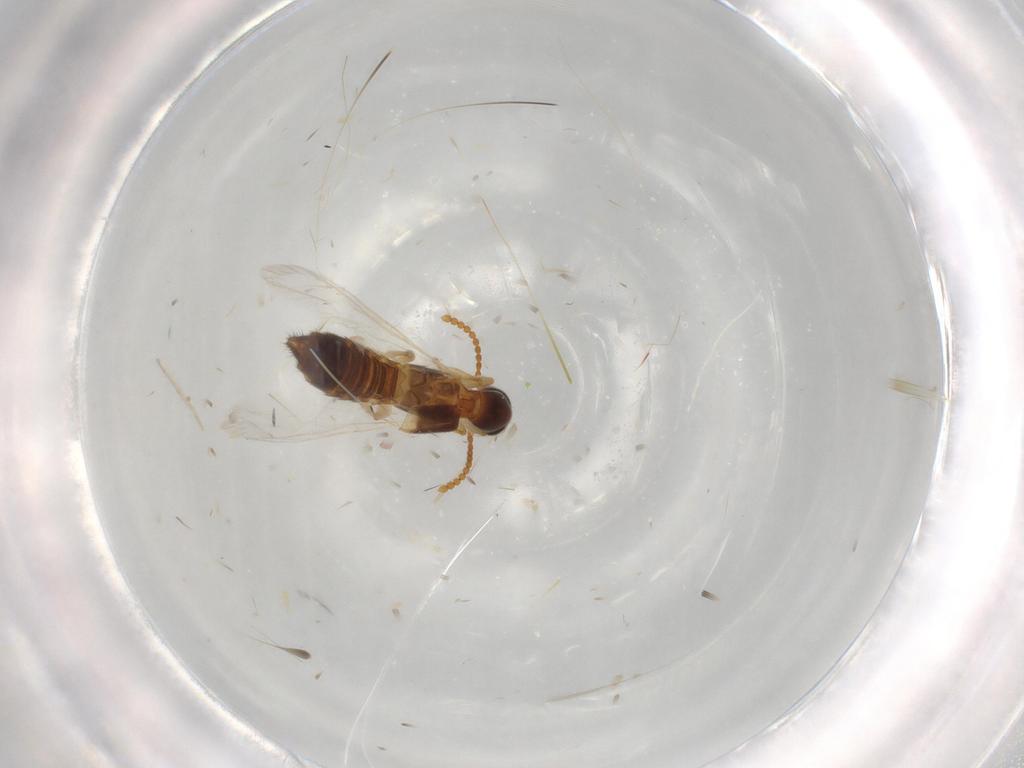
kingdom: Animalia
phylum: Arthropoda
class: Insecta
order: Coleoptera
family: Staphylinidae
